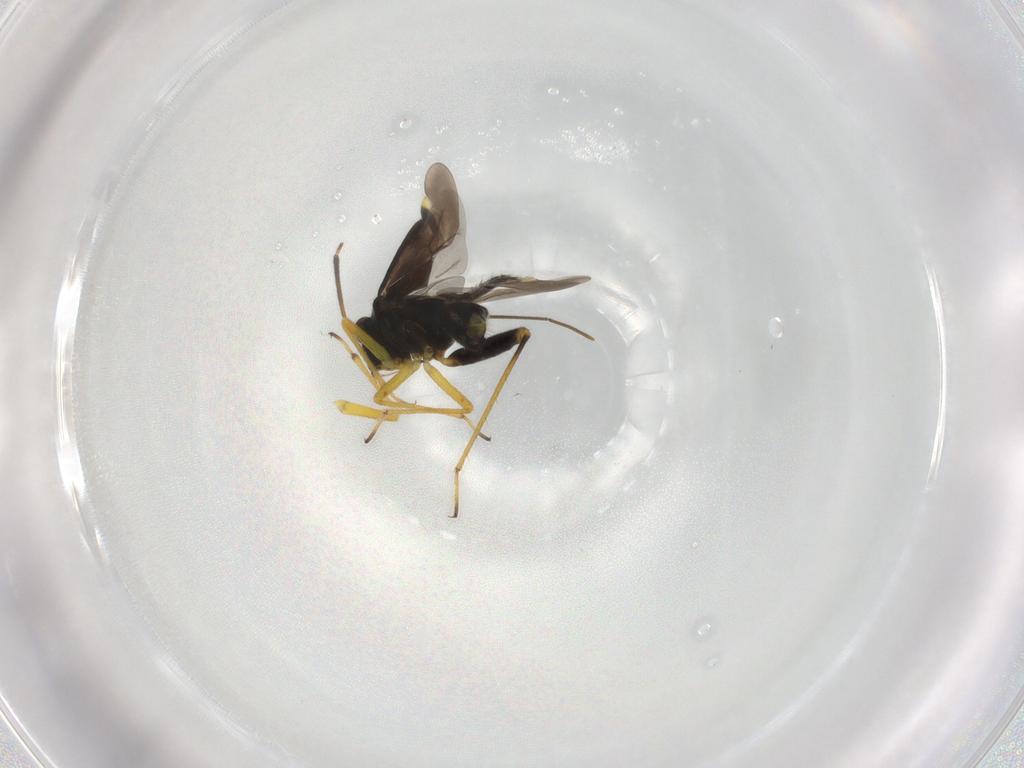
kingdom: Animalia
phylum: Arthropoda
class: Insecta
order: Hemiptera
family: Miridae
